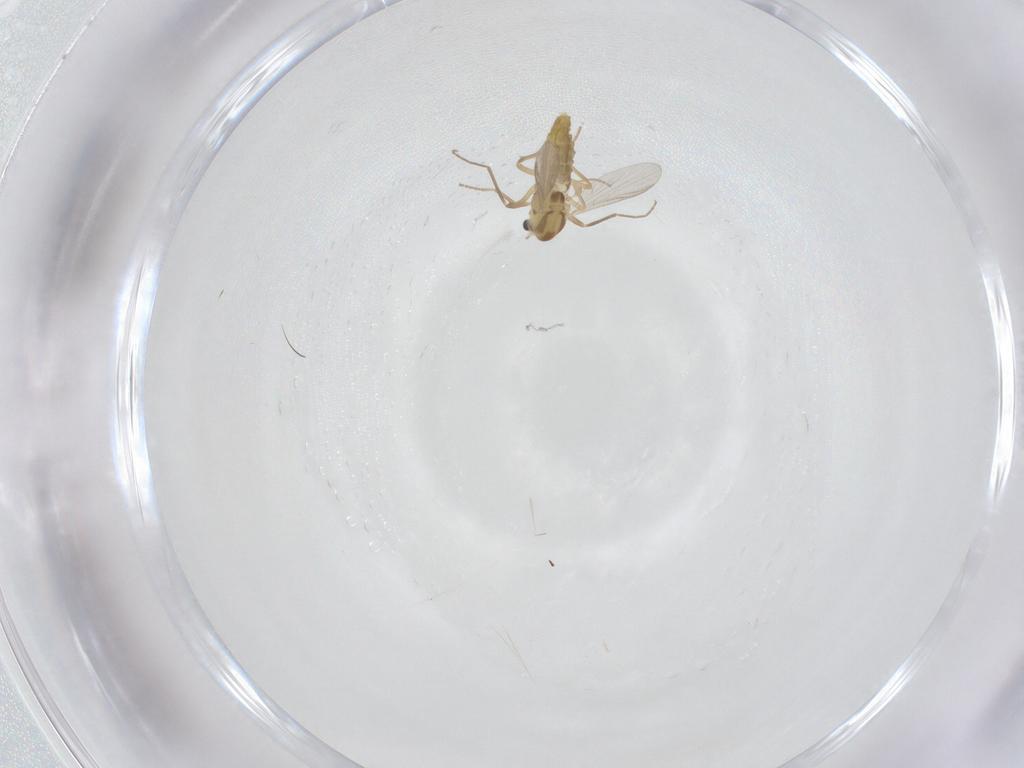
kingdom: Animalia
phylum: Arthropoda
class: Insecta
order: Diptera
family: Chironomidae
